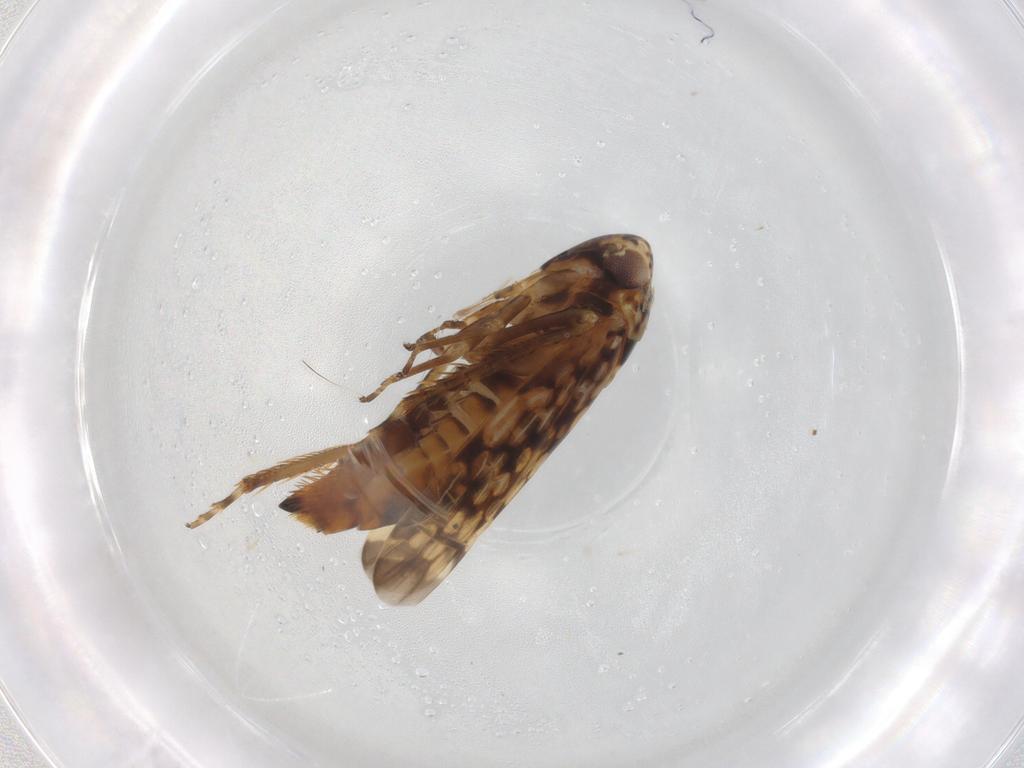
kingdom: Animalia
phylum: Arthropoda
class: Insecta
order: Hemiptera
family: Cicadellidae
